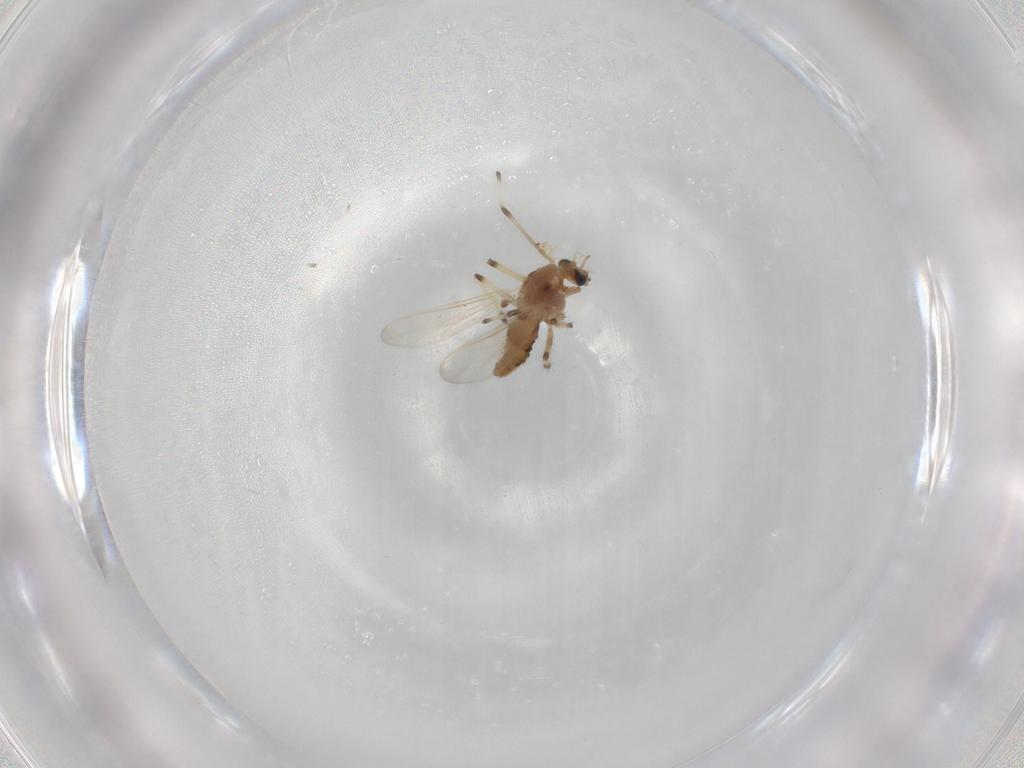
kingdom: Animalia
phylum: Arthropoda
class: Insecta
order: Diptera
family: Chironomidae
